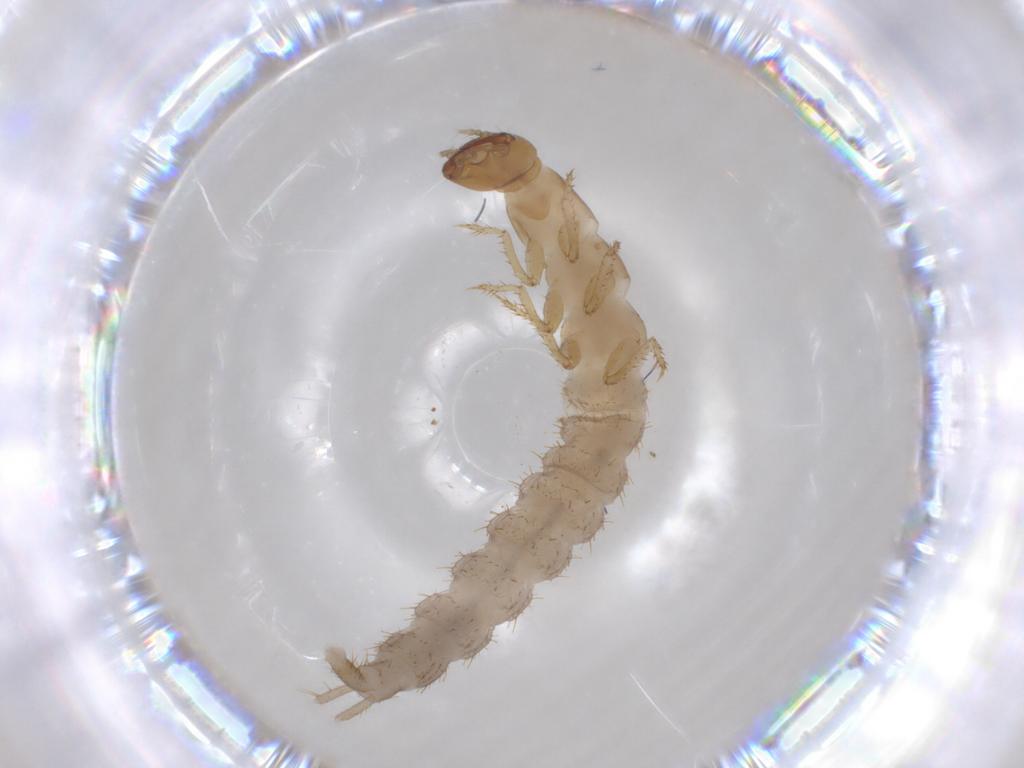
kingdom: Animalia
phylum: Arthropoda
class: Insecta
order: Coleoptera
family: Staphylinidae
